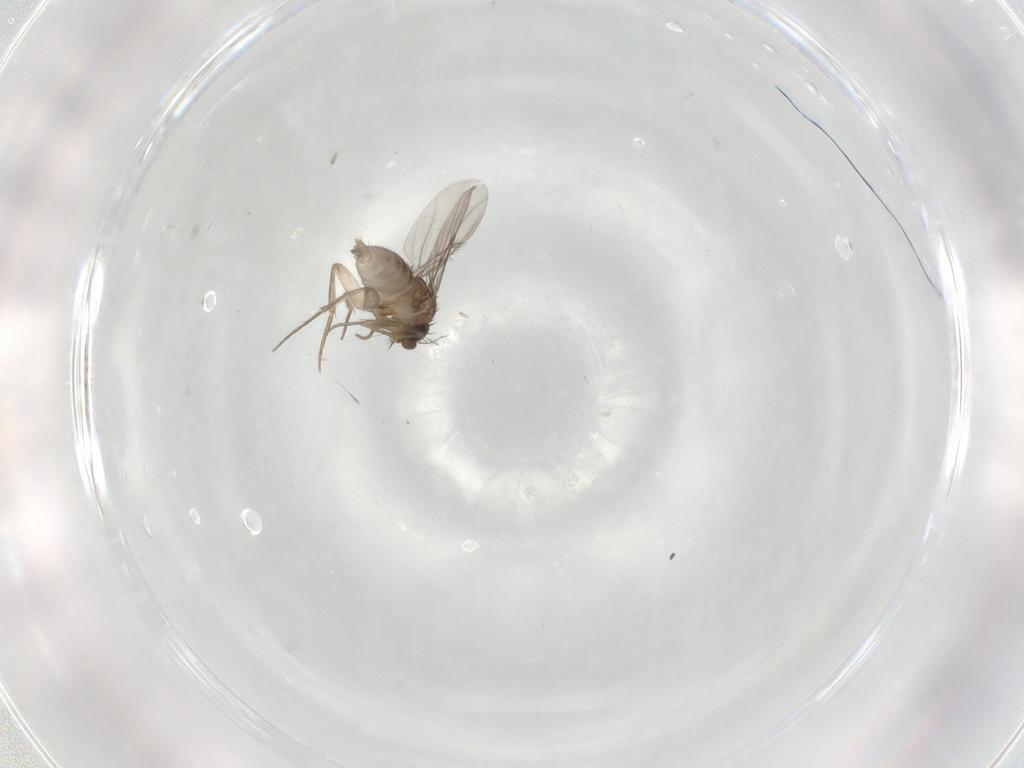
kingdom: Animalia
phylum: Arthropoda
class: Insecta
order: Diptera
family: Phoridae
